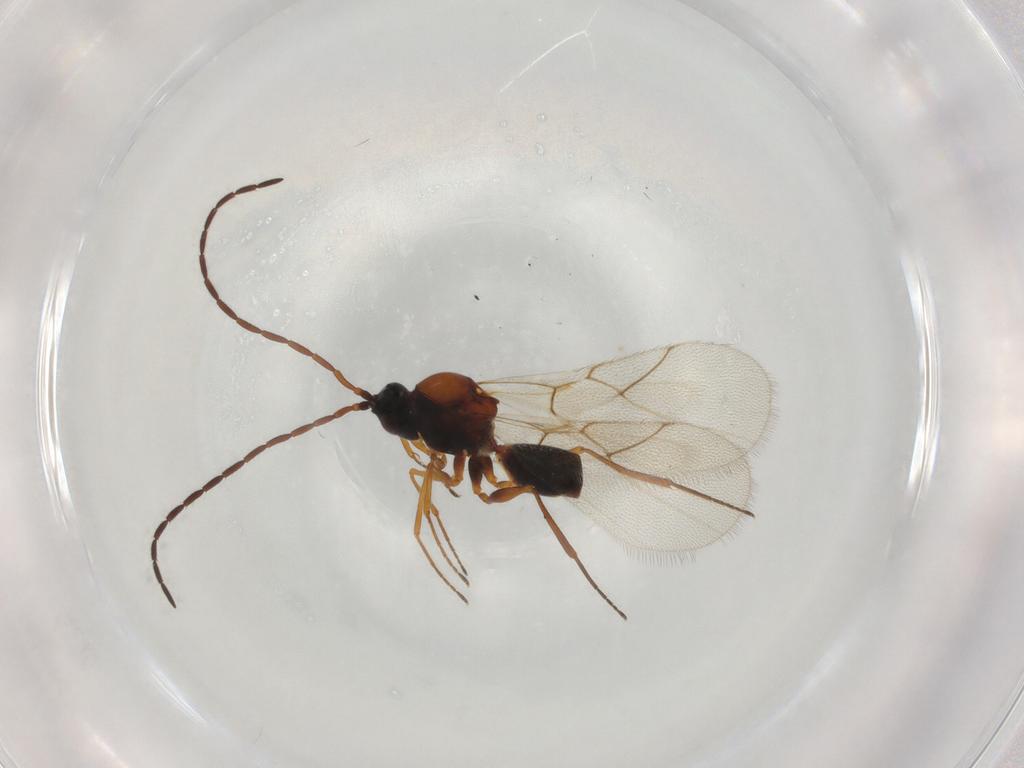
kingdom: Animalia
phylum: Arthropoda
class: Insecta
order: Hymenoptera
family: Figitidae
